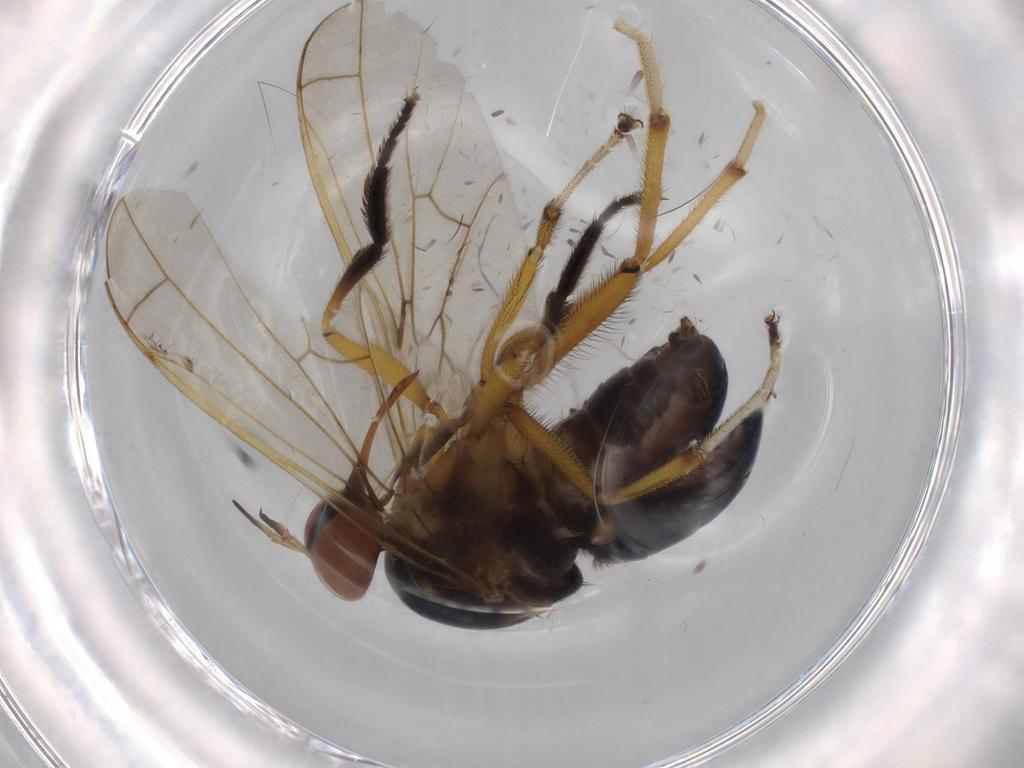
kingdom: Animalia
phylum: Arthropoda
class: Insecta
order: Diptera
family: Empididae
